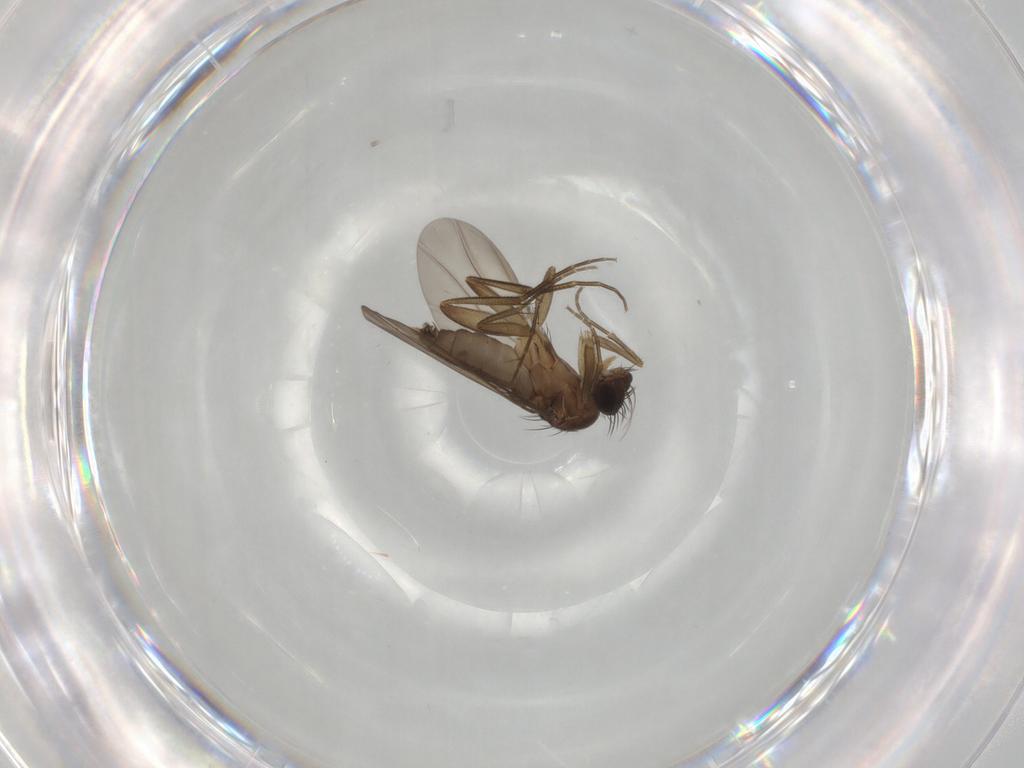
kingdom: Animalia
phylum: Arthropoda
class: Insecta
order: Diptera
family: Phoridae
